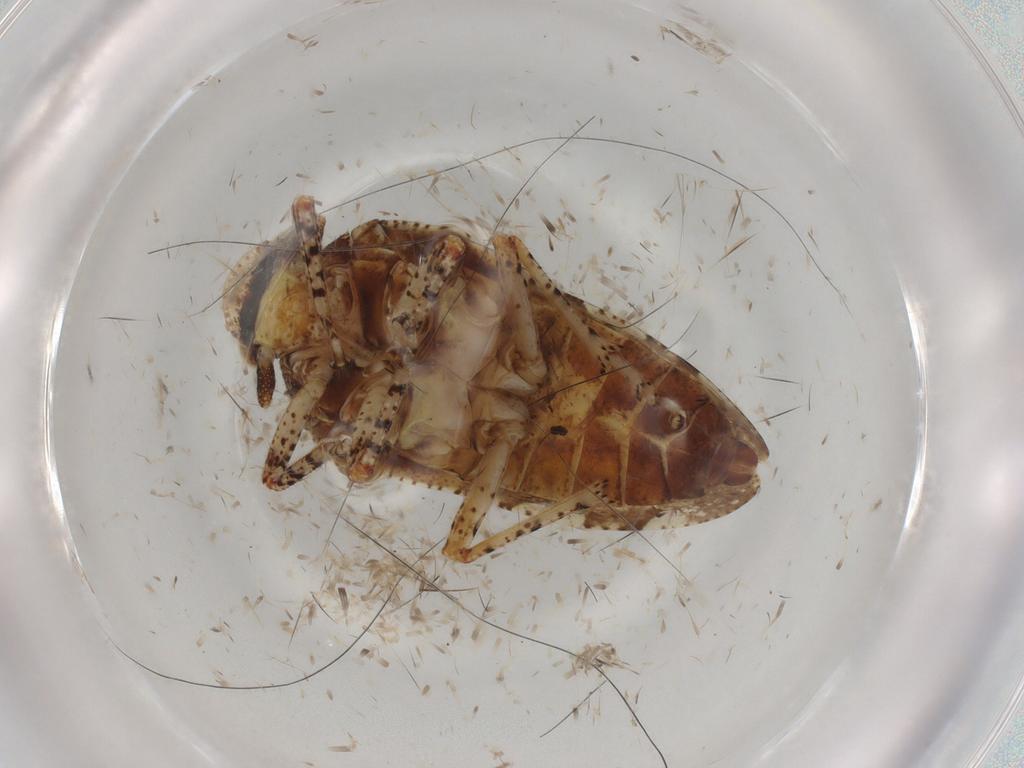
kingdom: Animalia
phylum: Arthropoda
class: Insecta
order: Hemiptera
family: Tettigometridae
